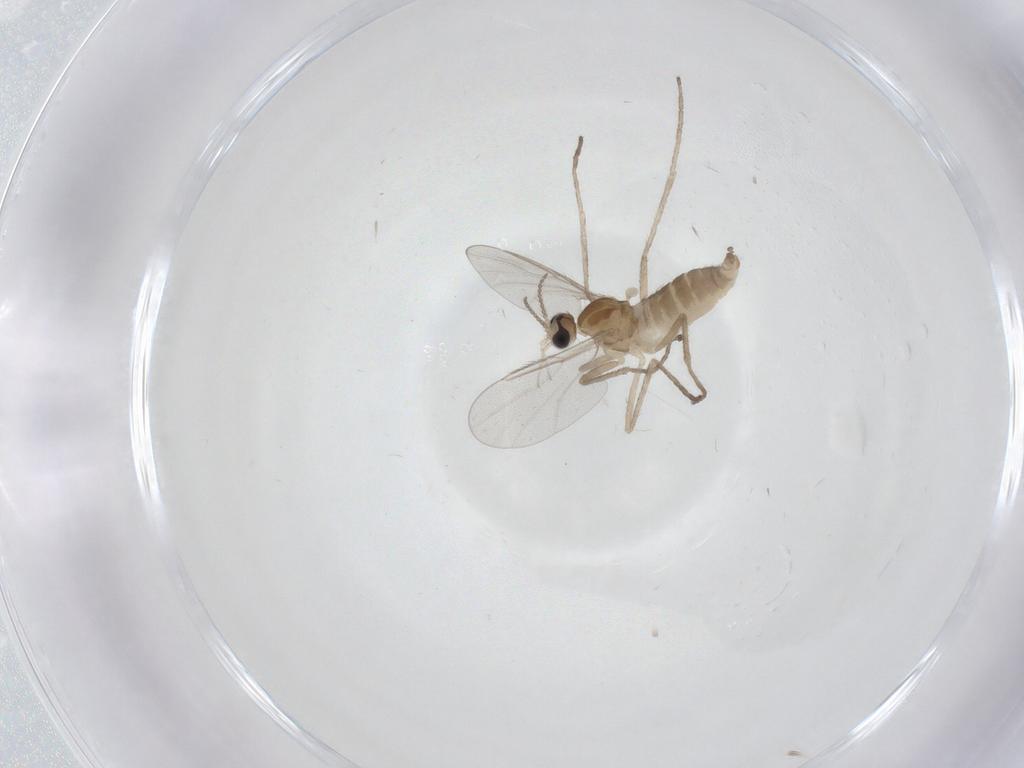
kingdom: Animalia
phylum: Arthropoda
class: Insecta
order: Diptera
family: Cecidomyiidae
